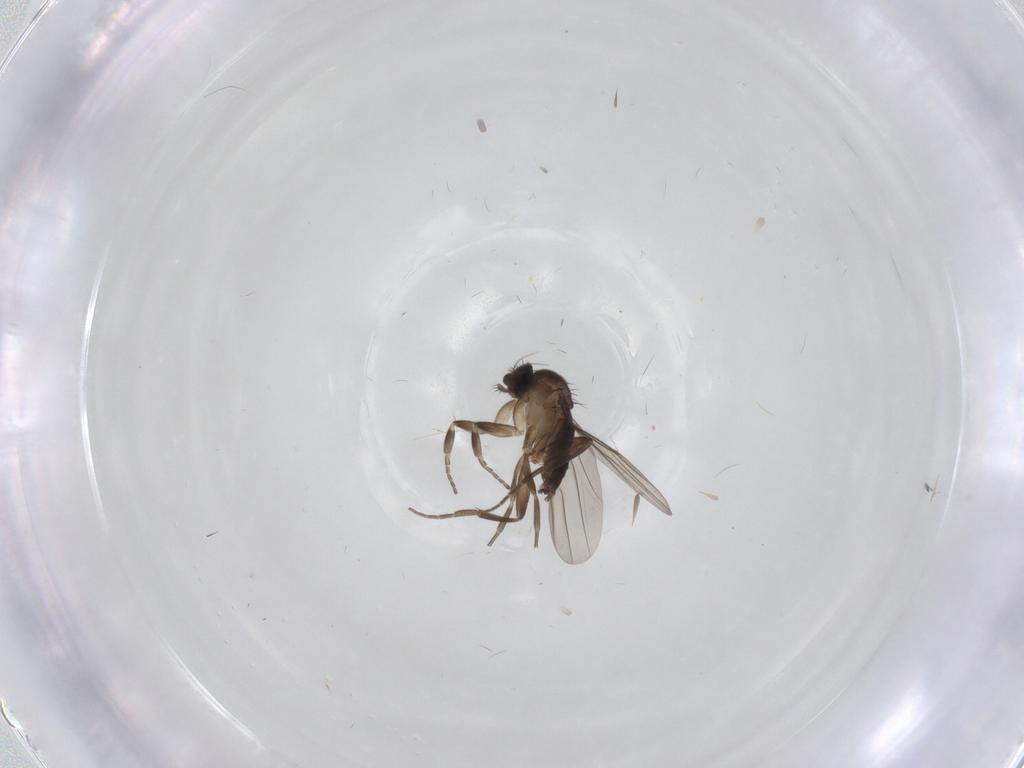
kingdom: Animalia
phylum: Arthropoda
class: Insecta
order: Diptera
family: Phoridae
